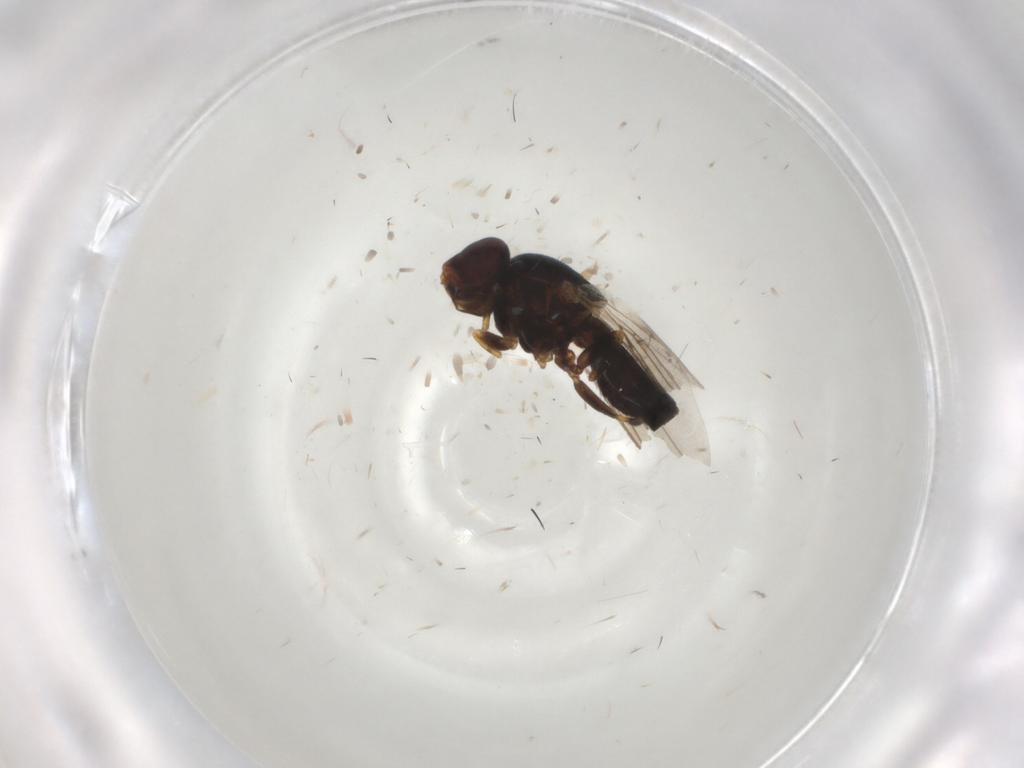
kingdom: Animalia
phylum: Arthropoda
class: Insecta
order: Diptera
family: Glossinidae
